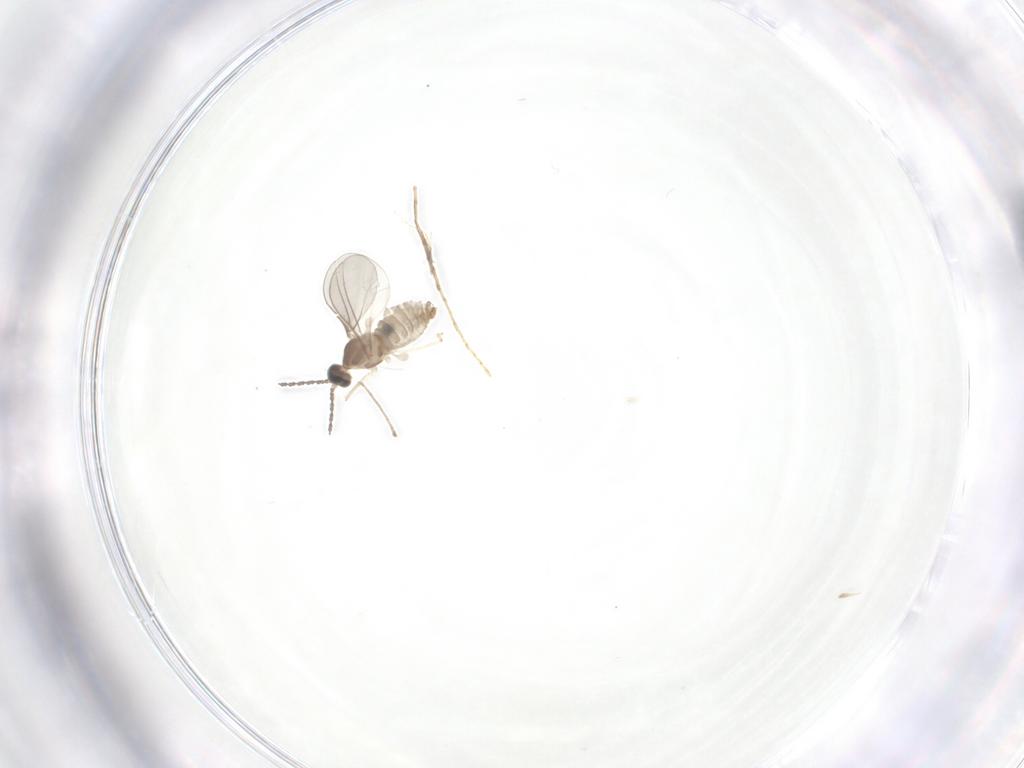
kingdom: Animalia
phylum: Arthropoda
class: Insecta
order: Diptera
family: Cecidomyiidae
